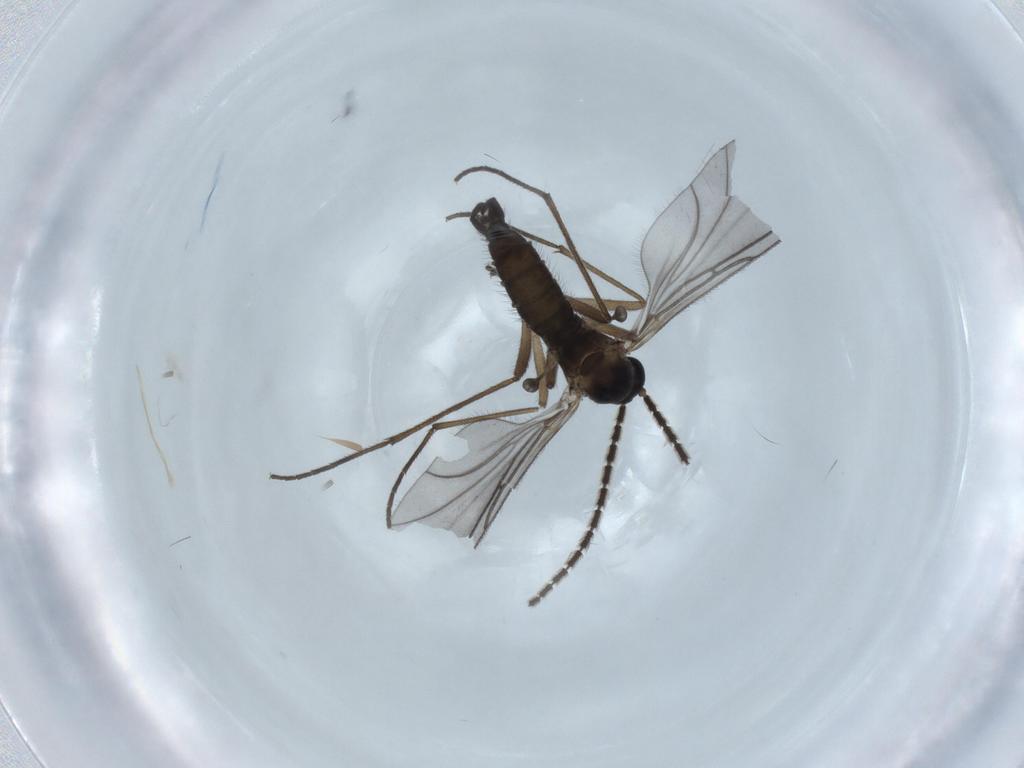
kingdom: Animalia
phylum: Arthropoda
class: Insecta
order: Diptera
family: Sciaridae
